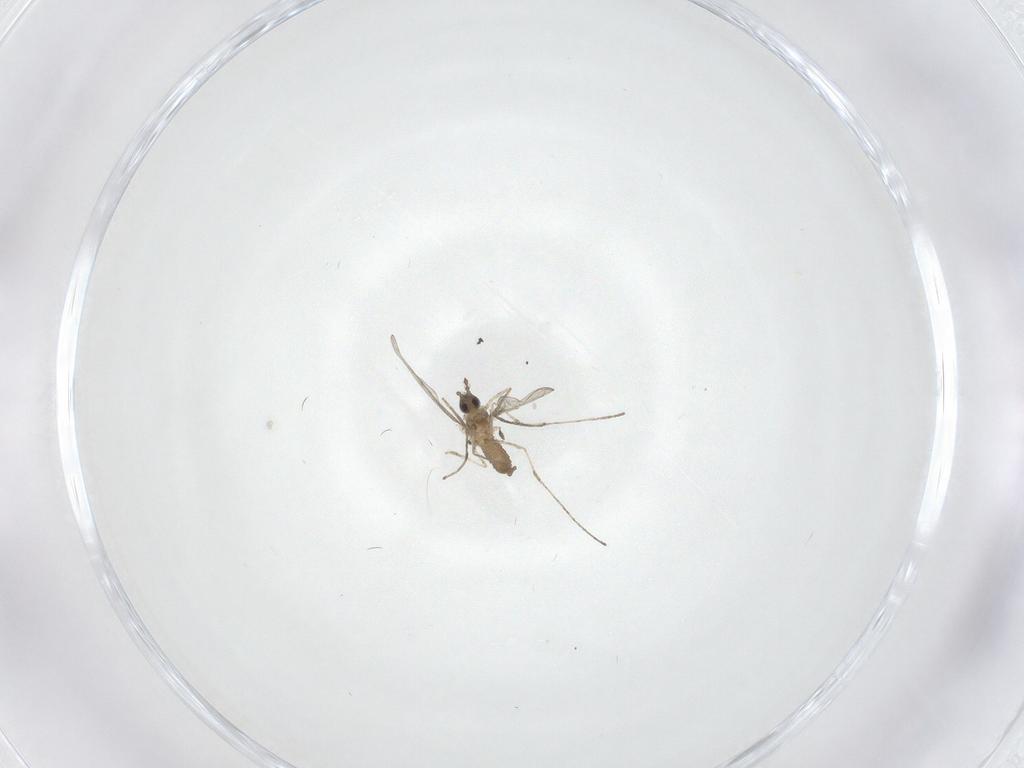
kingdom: Animalia
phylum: Arthropoda
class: Insecta
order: Diptera
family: Cecidomyiidae
